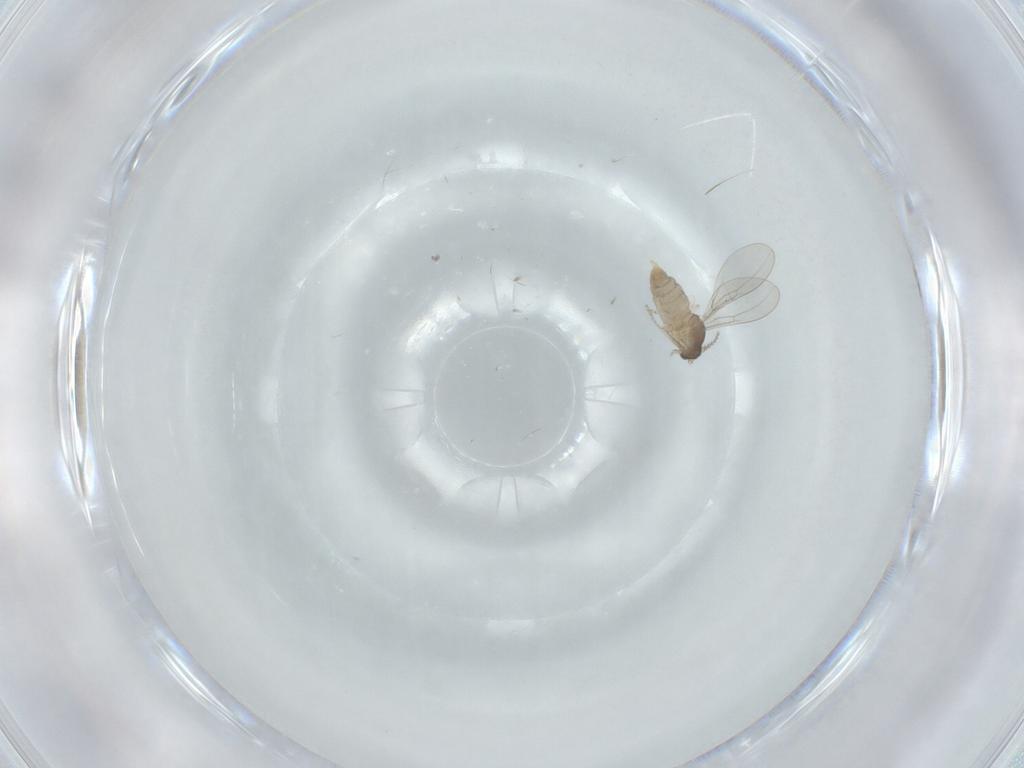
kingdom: Animalia
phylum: Arthropoda
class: Insecta
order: Diptera
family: Cecidomyiidae
